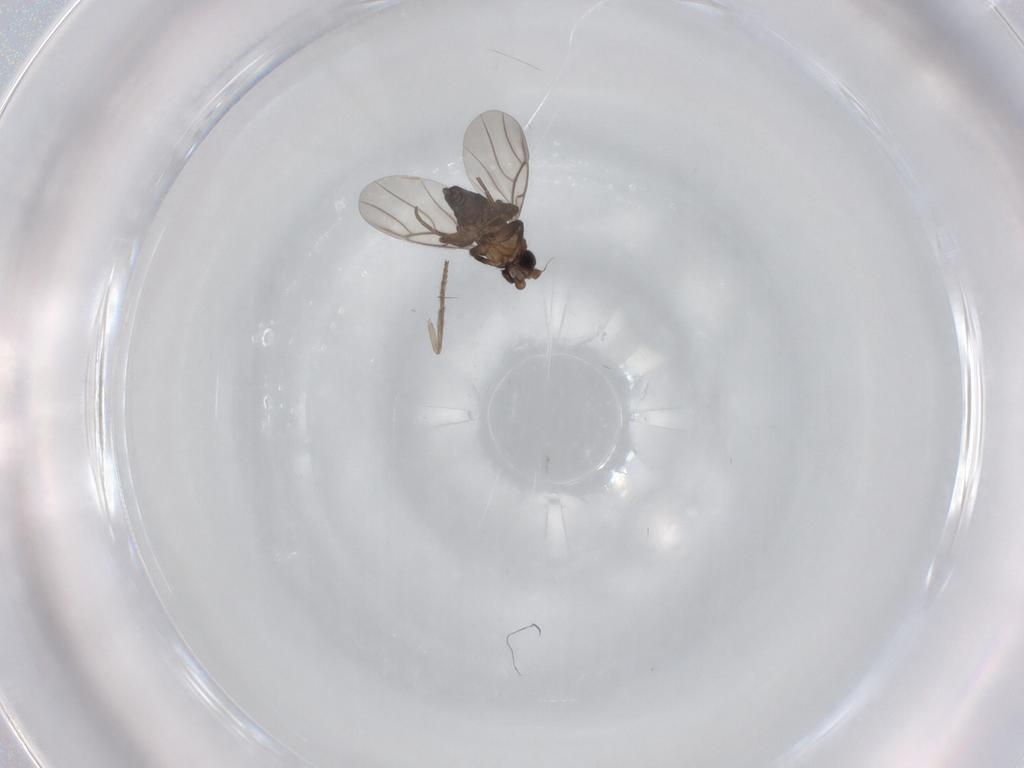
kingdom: Animalia
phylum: Arthropoda
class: Insecta
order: Diptera
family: Phoridae
